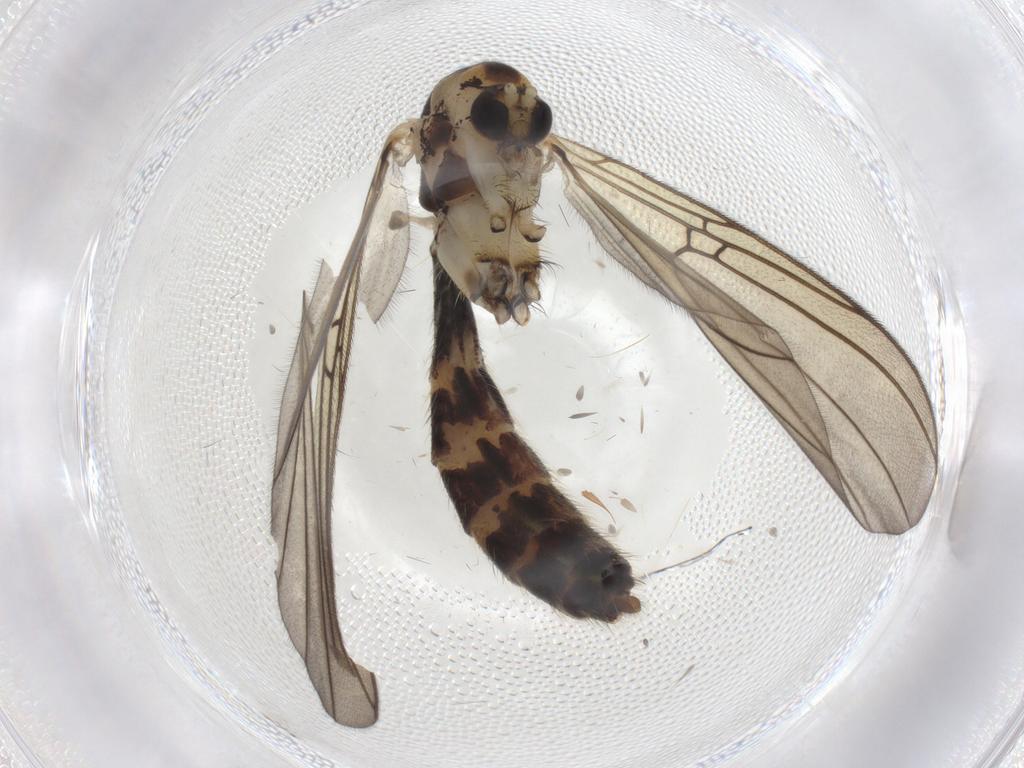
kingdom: Animalia
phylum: Arthropoda
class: Insecta
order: Diptera
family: Mycetophilidae
